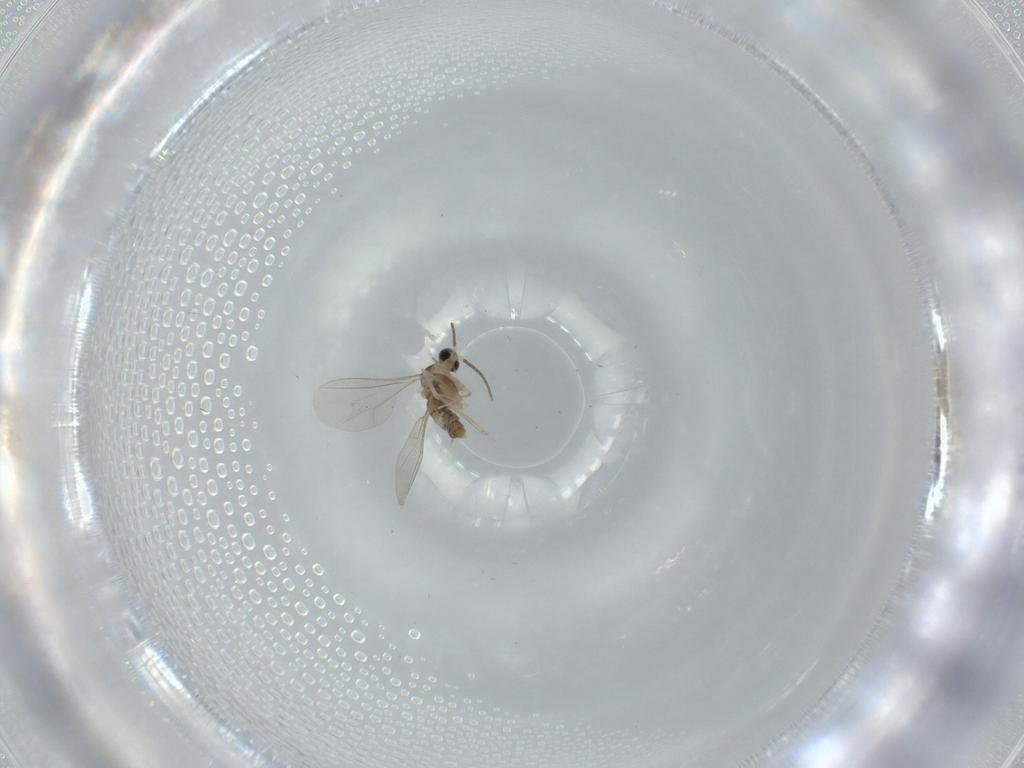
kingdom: Animalia
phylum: Arthropoda
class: Insecta
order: Diptera
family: Cecidomyiidae
